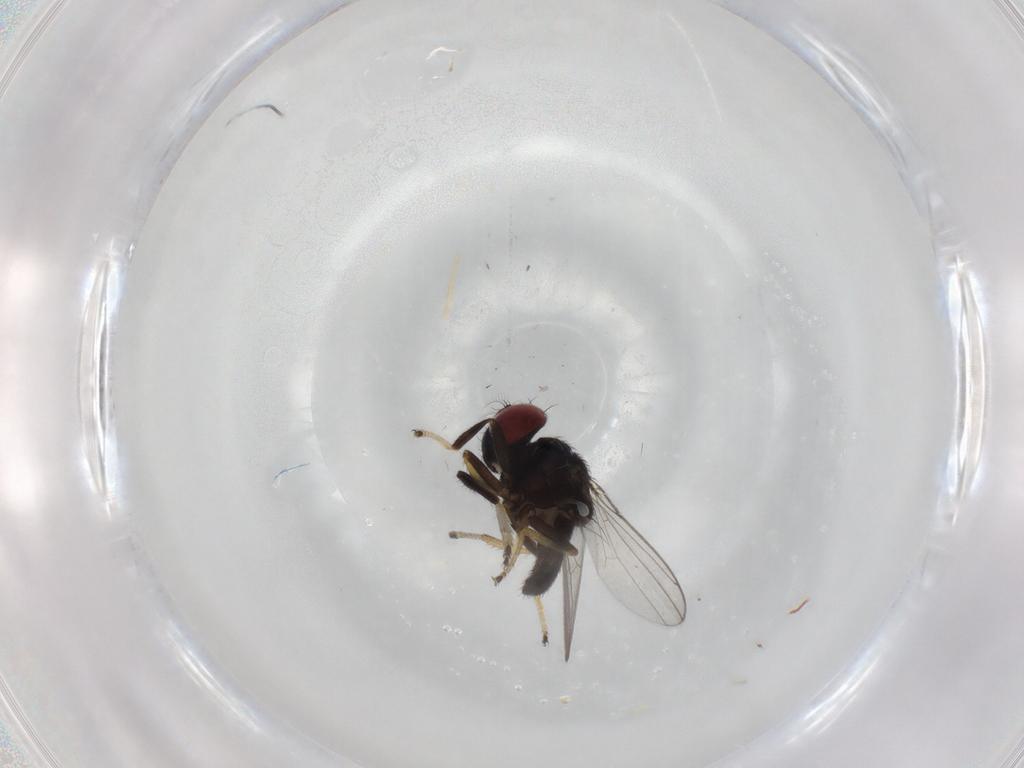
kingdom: Animalia
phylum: Arthropoda
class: Insecta
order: Diptera
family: Ephydridae
